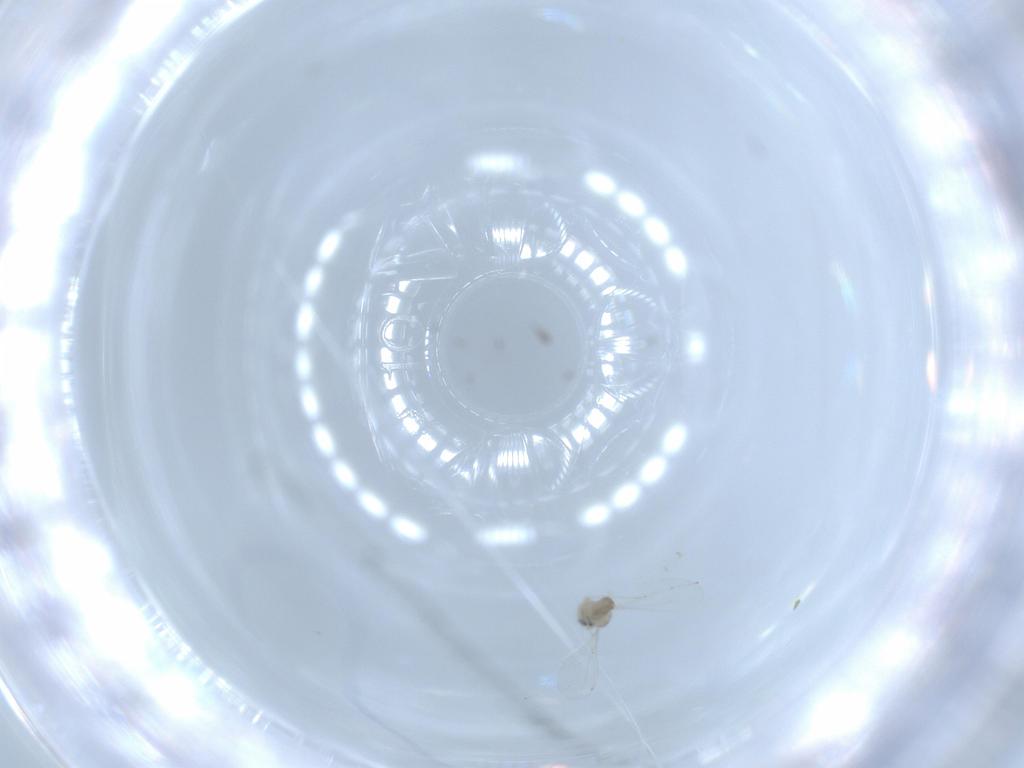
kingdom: Animalia
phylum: Arthropoda
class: Insecta
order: Diptera
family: Cecidomyiidae
